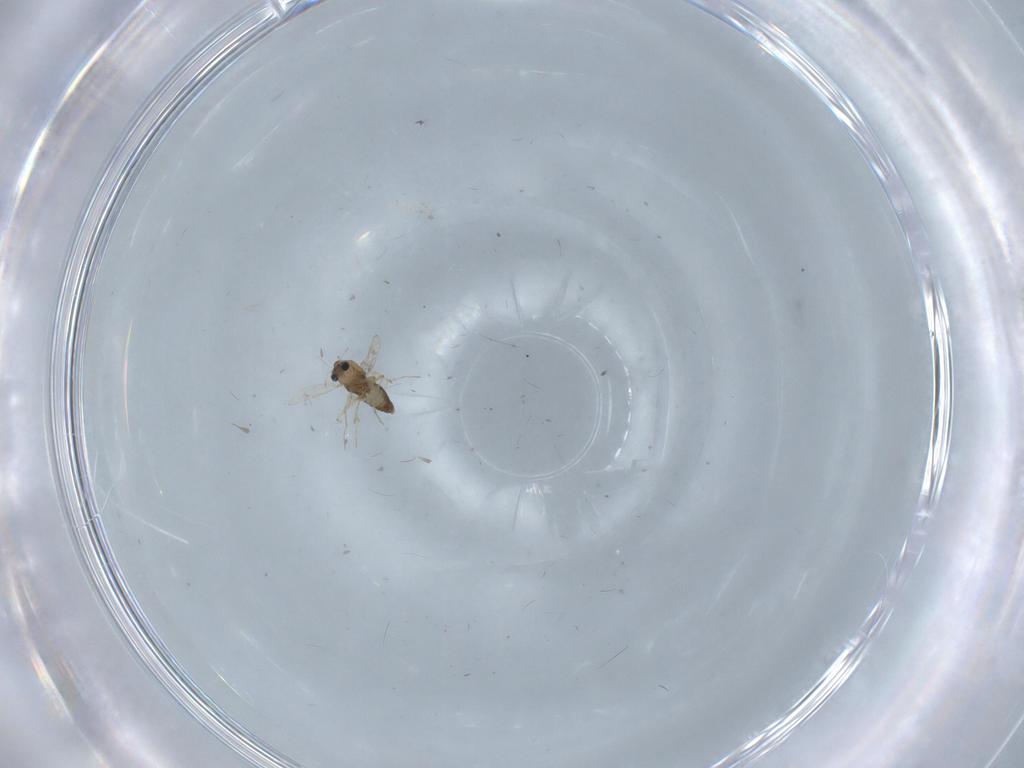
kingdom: Animalia
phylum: Arthropoda
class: Insecta
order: Diptera
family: Chironomidae
